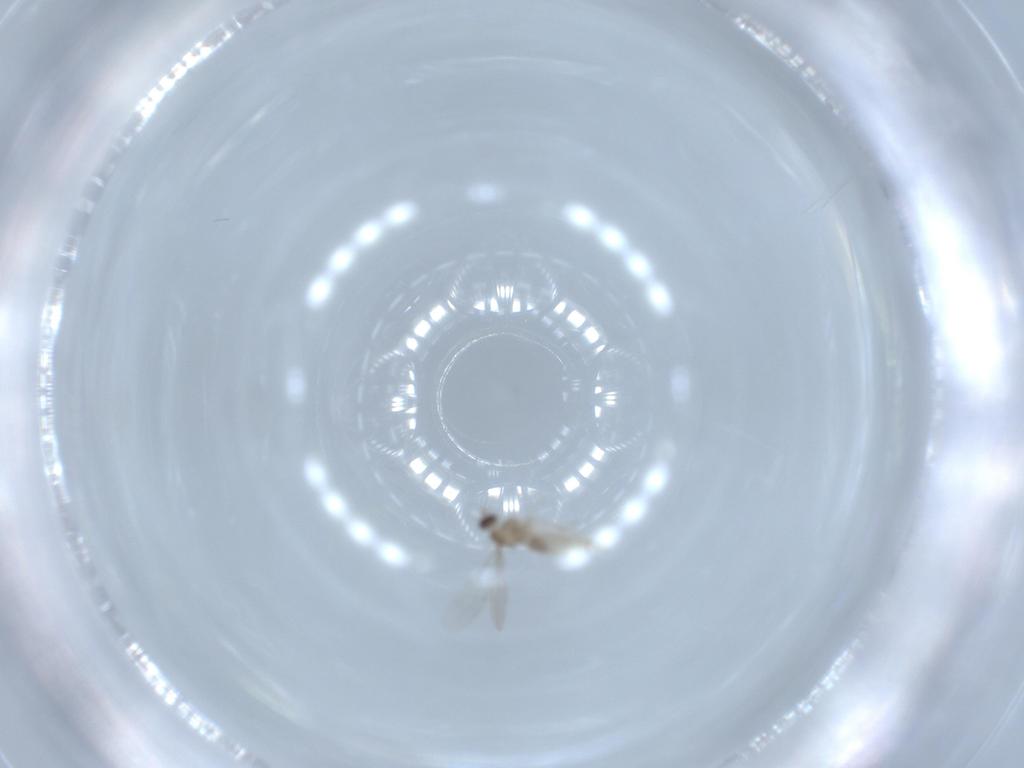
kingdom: Animalia
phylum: Arthropoda
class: Insecta
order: Diptera
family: Cecidomyiidae
